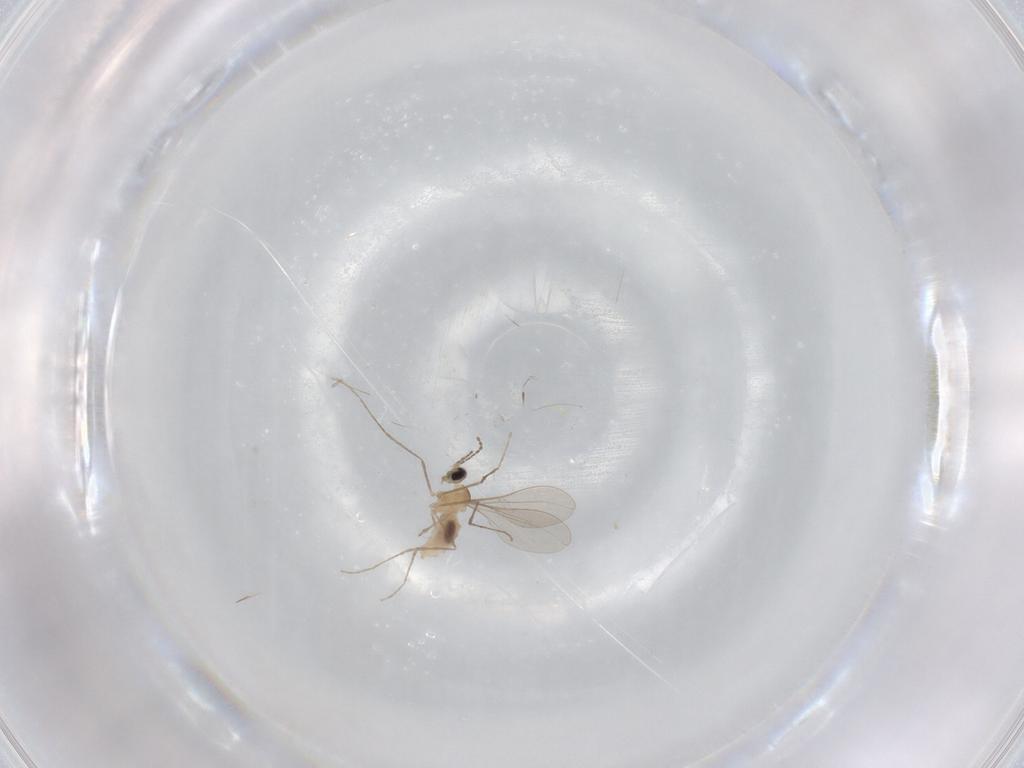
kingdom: Animalia
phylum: Arthropoda
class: Insecta
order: Diptera
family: Cecidomyiidae
